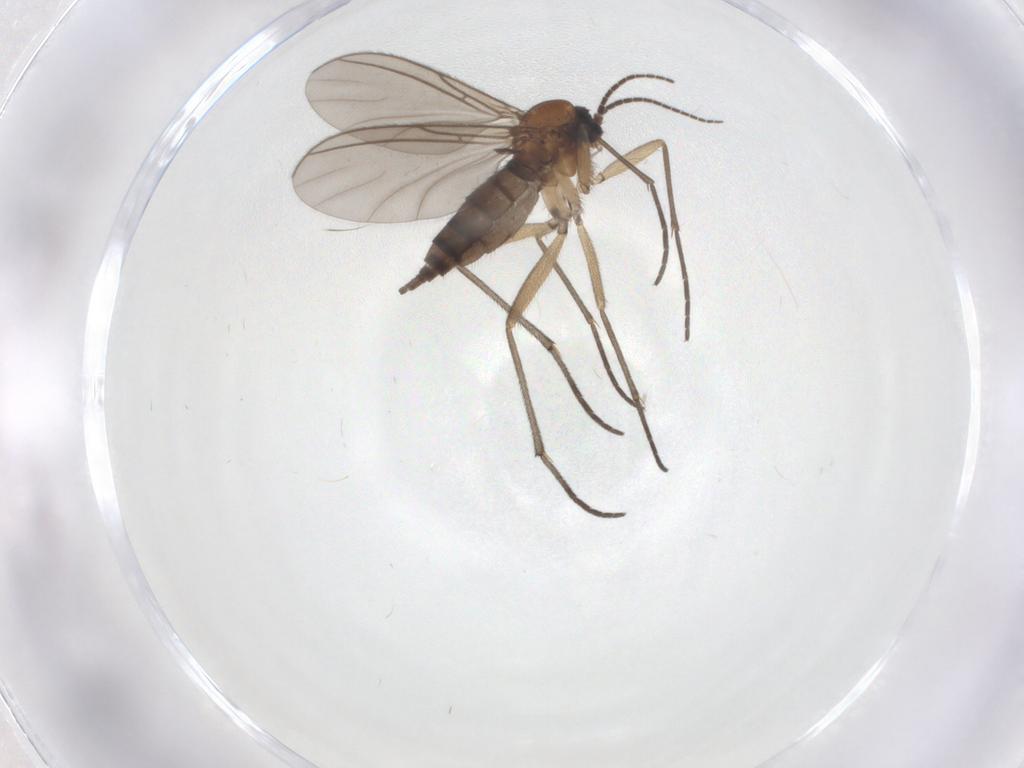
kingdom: Animalia
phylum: Arthropoda
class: Insecta
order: Diptera
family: Sciaridae
